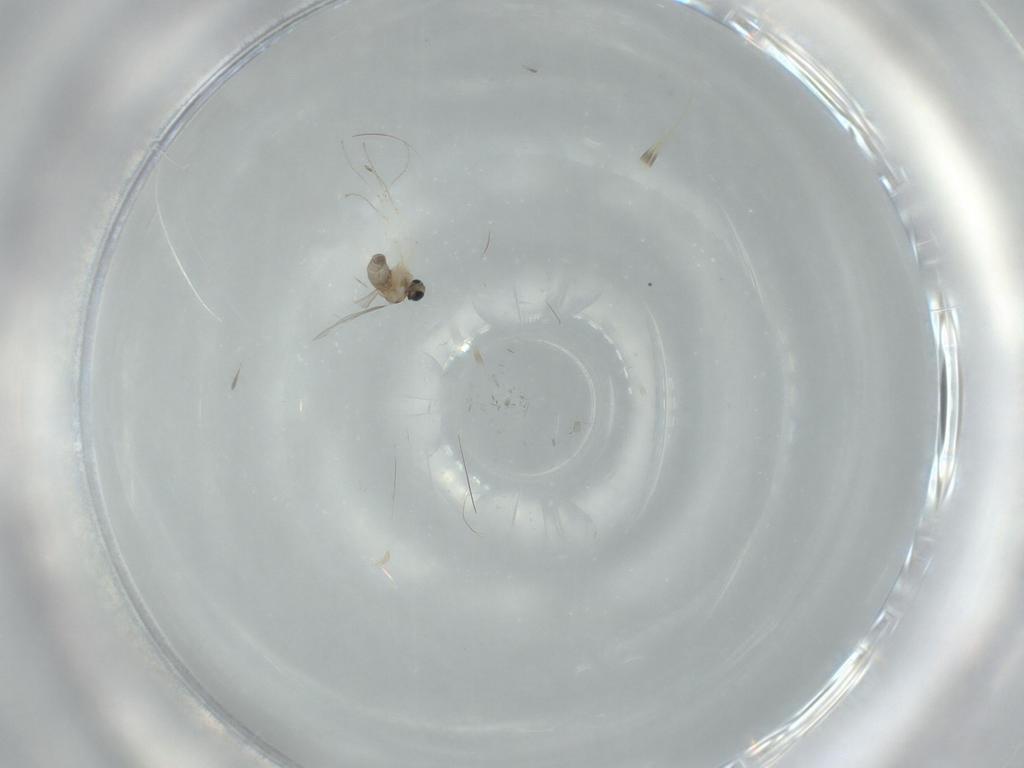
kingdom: Animalia
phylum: Arthropoda
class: Insecta
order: Diptera
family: Cecidomyiidae
